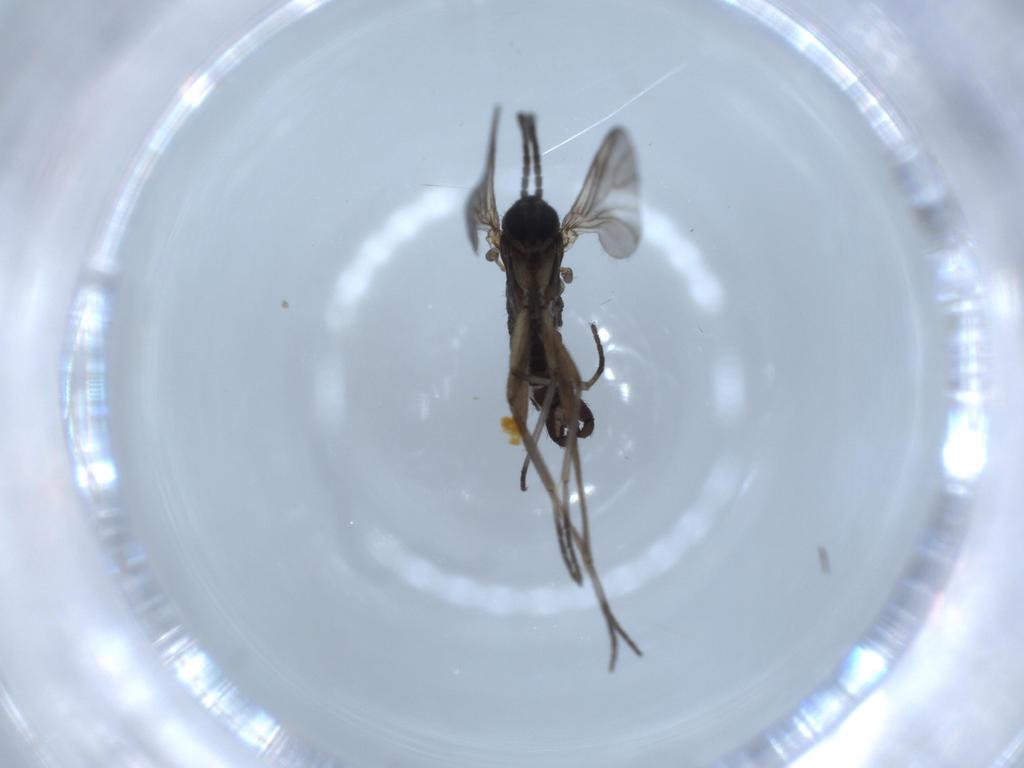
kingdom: Animalia
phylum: Arthropoda
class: Insecta
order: Diptera
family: Sciaridae
